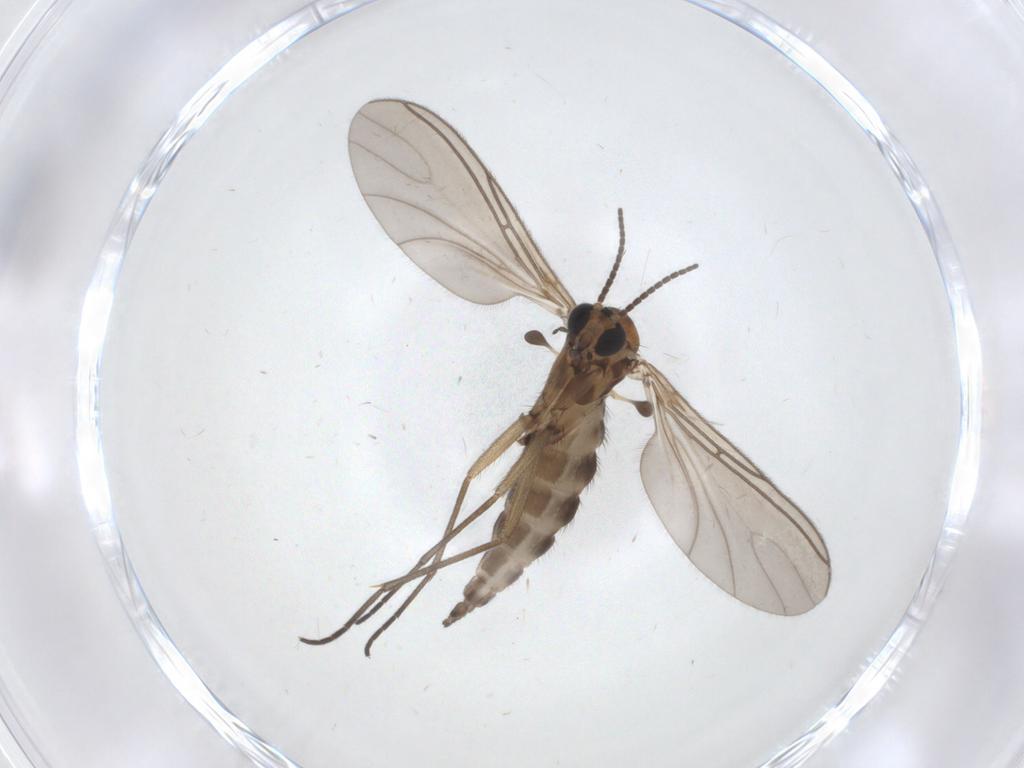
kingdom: Animalia
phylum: Arthropoda
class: Insecta
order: Diptera
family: Sciaridae
